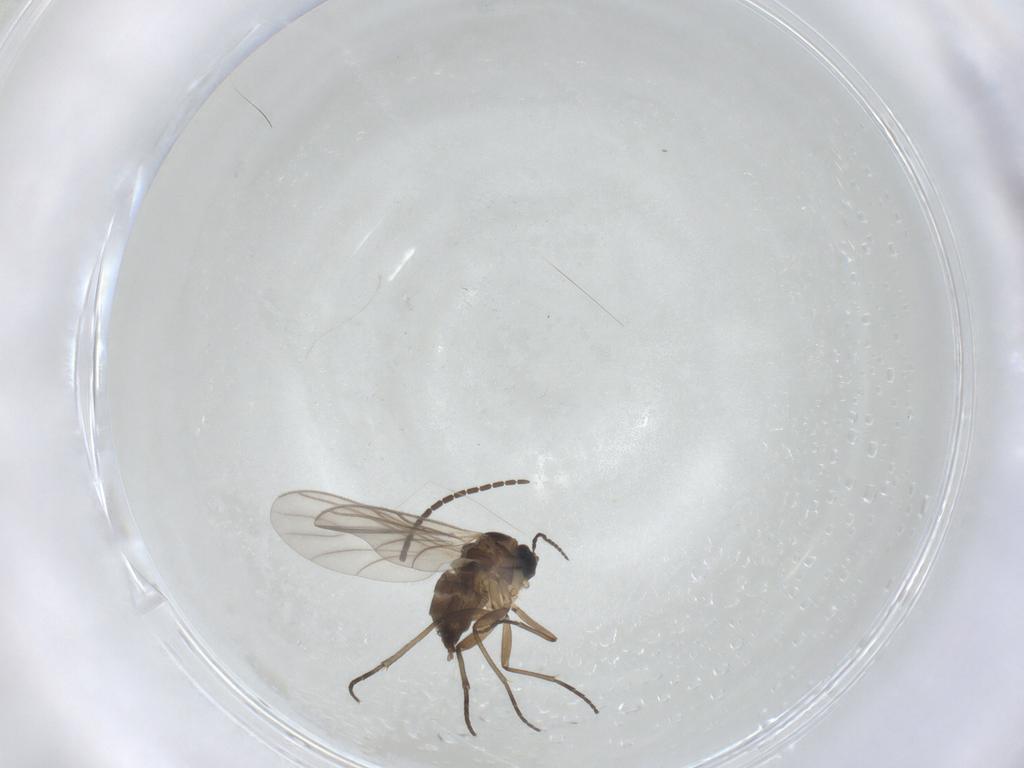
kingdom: Animalia
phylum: Arthropoda
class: Insecta
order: Diptera
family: Sciaridae
